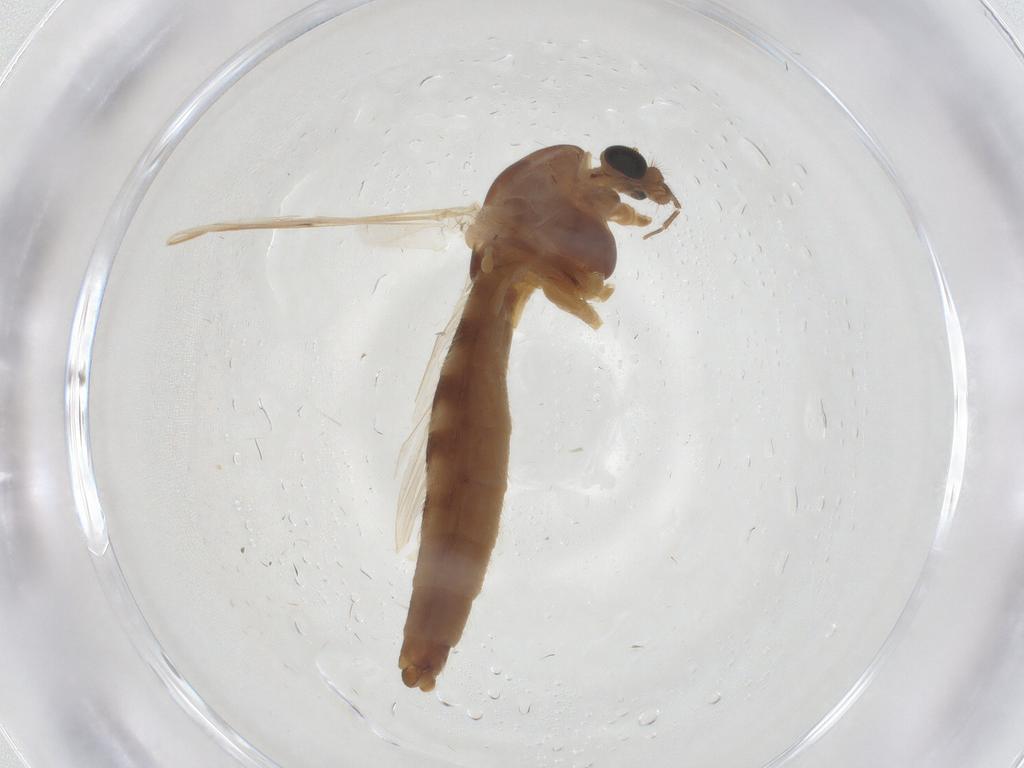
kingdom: Animalia
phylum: Arthropoda
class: Insecta
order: Diptera
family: Chironomidae
